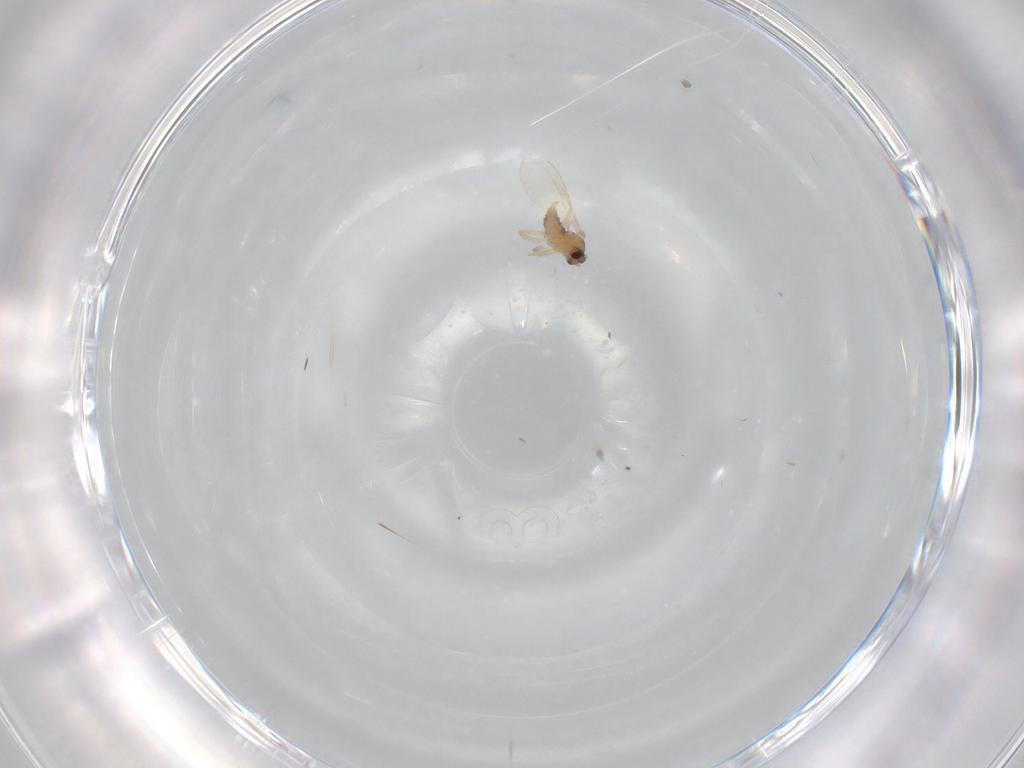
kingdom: Animalia
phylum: Arthropoda
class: Insecta
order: Diptera
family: Cecidomyiidae
